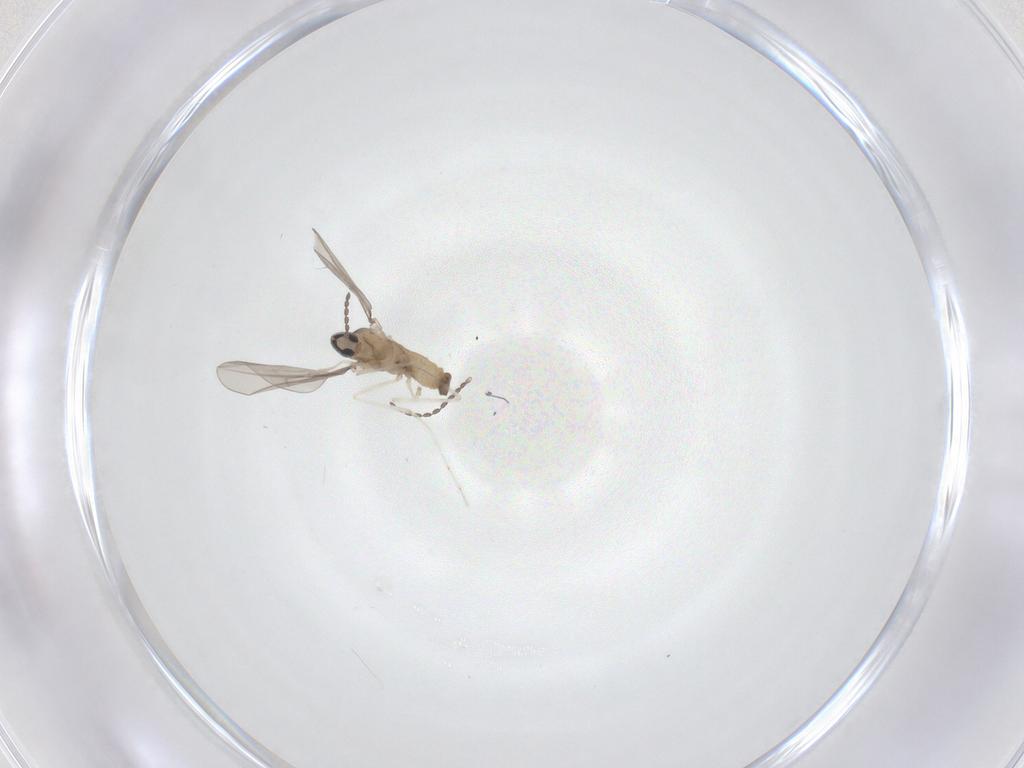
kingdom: Animalia
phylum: Arthropoda
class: Insecta
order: Diptera
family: Cecidomyiidae
